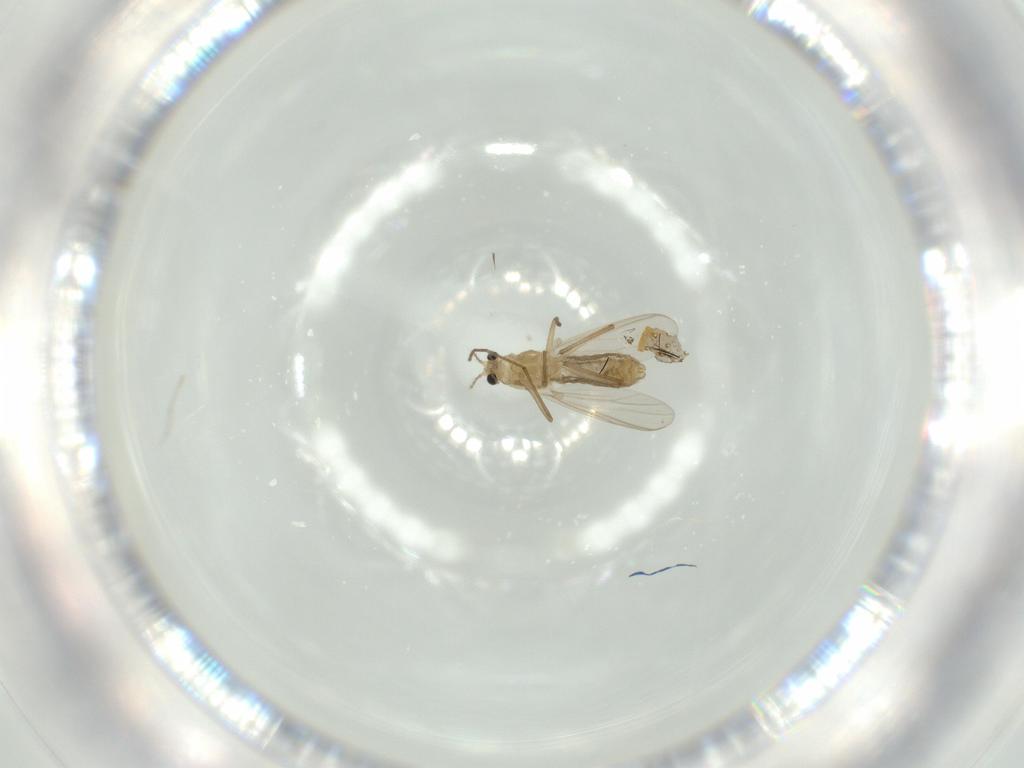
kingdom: Animalia
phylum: Arthropoda
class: Insecta
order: Diptera
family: Chironomidae
